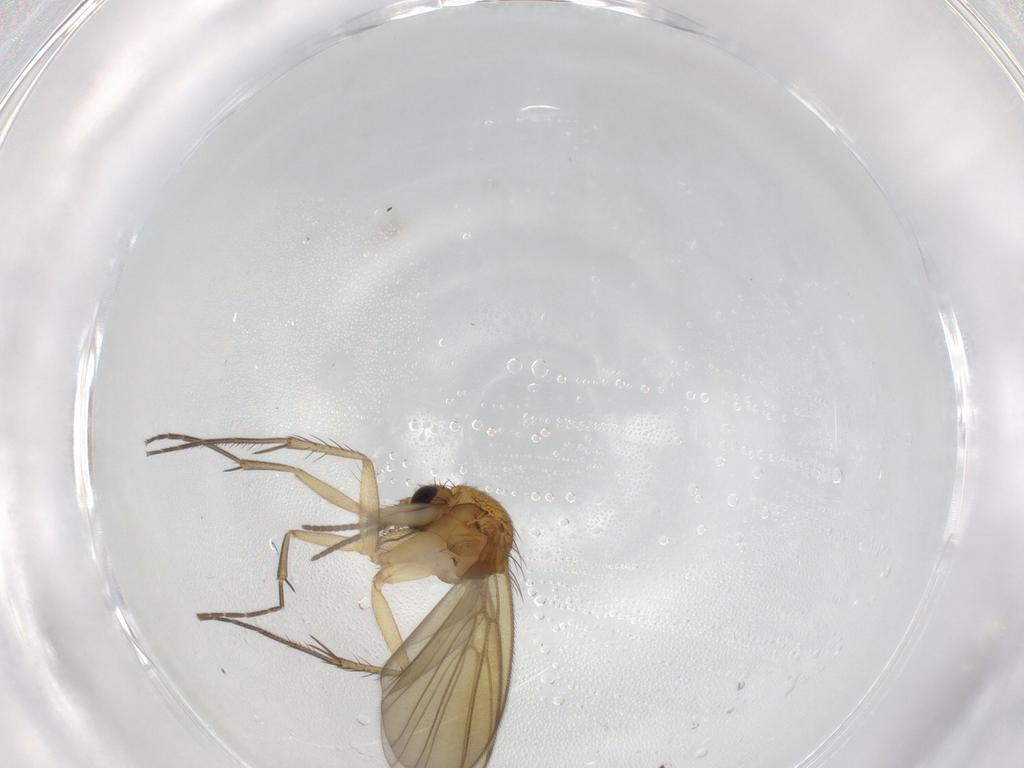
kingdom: Animalia
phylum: Arthropoda
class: Insecta
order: Diptera
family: Chironomidae
